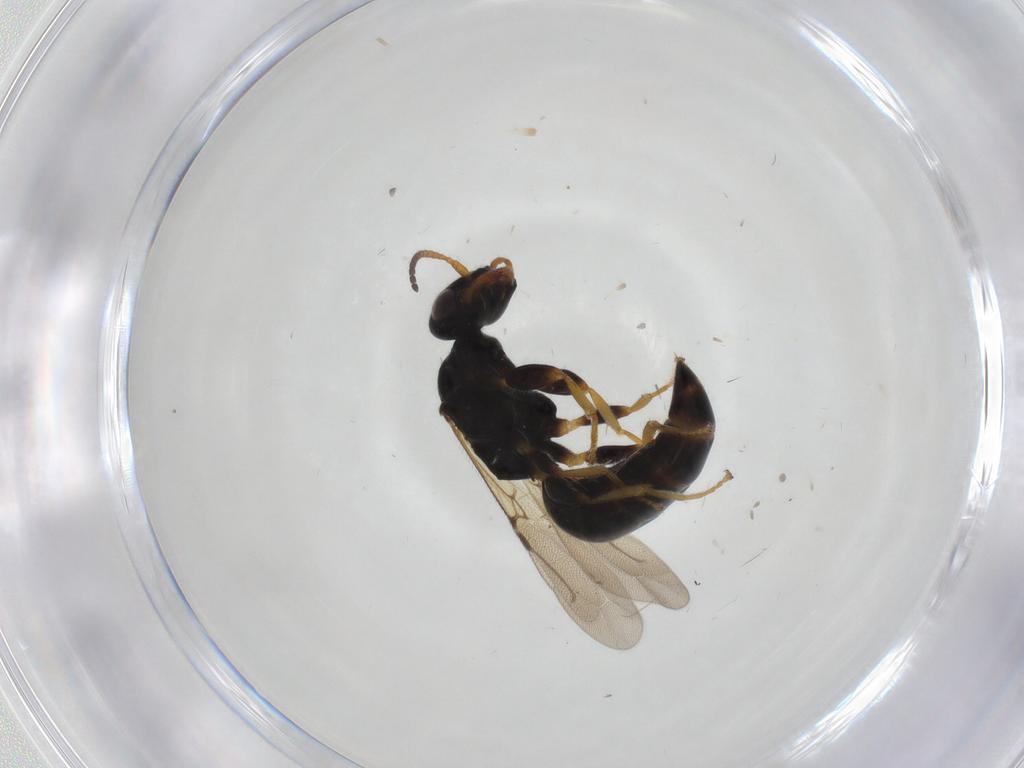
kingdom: Animalia
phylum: Arthropoda
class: Insecta
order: Hymenoptera
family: Bethylidae
